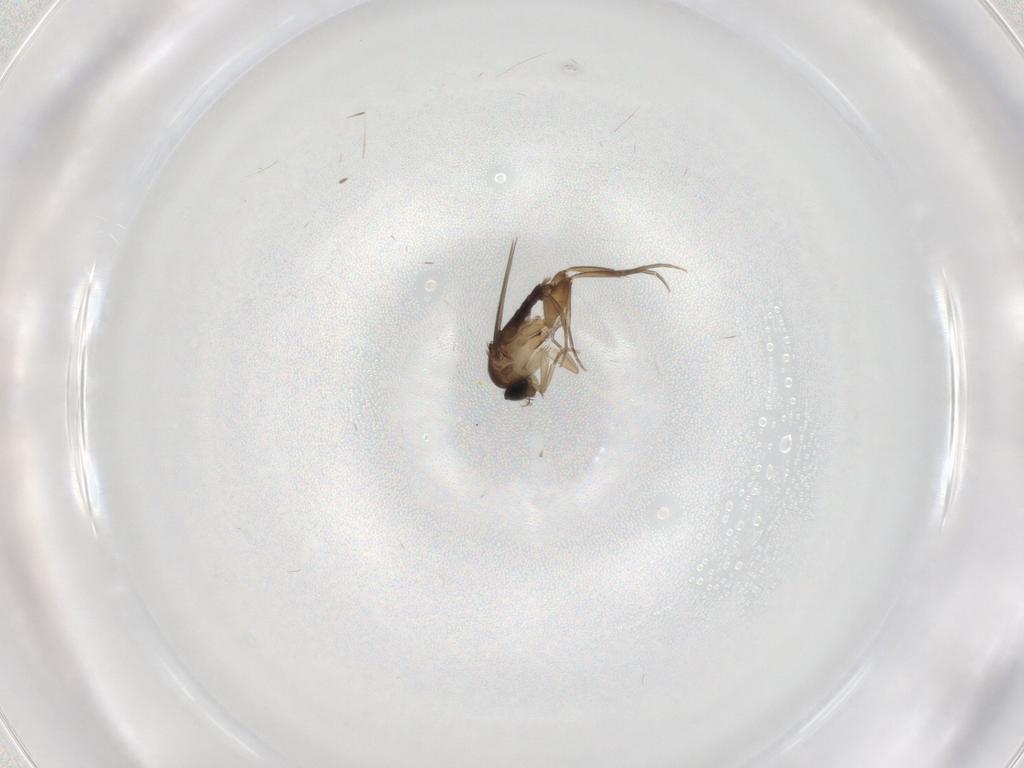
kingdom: Animalia
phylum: Arthropoda
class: Insecta
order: Diptera
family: Phoridae
